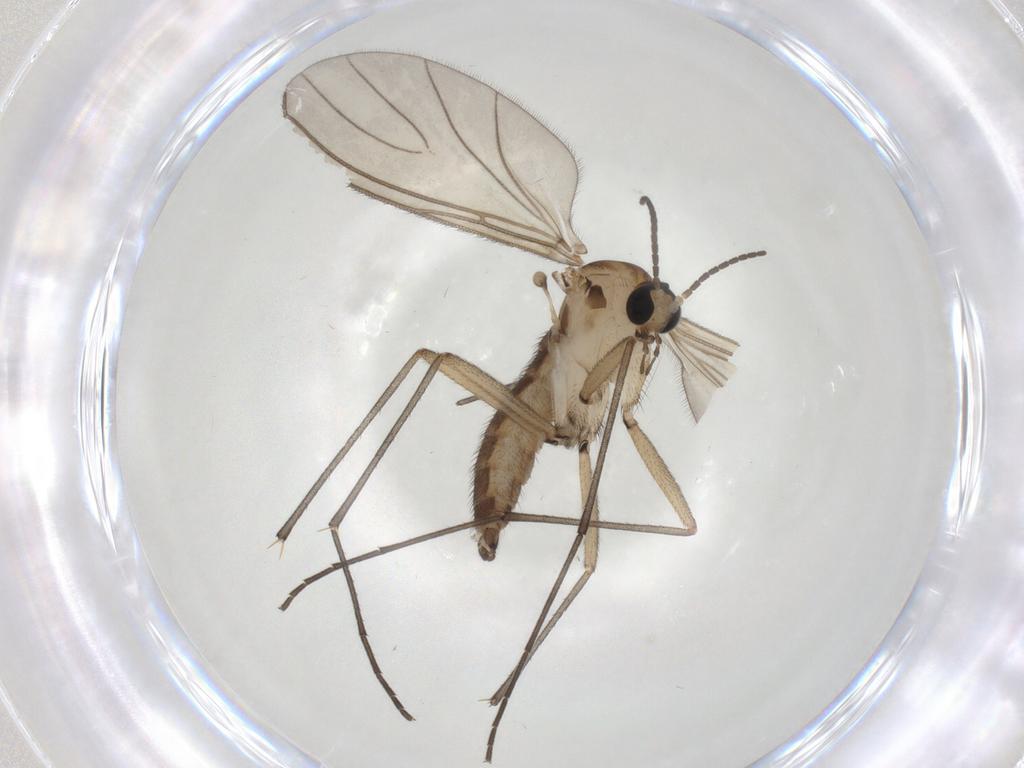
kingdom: Animalia
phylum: Arthropoda
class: Insecta
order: Diptera
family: Sciaridae
